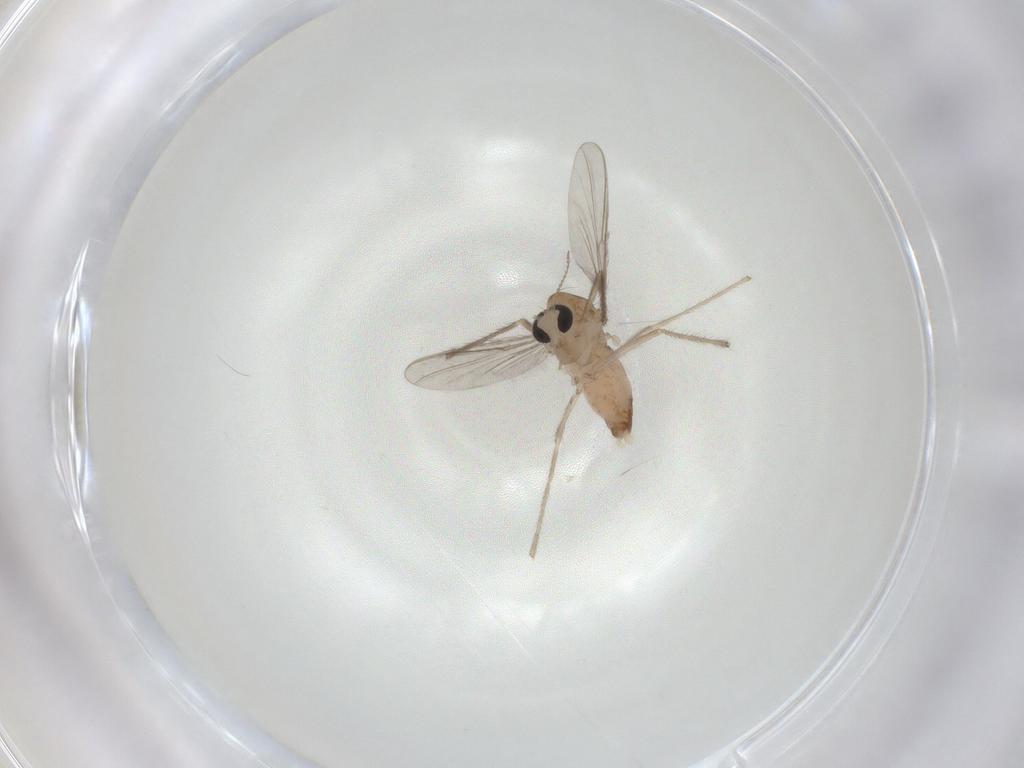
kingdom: Animalia
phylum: Arthropoda
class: Insecta
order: Diptera
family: Chironomidae
